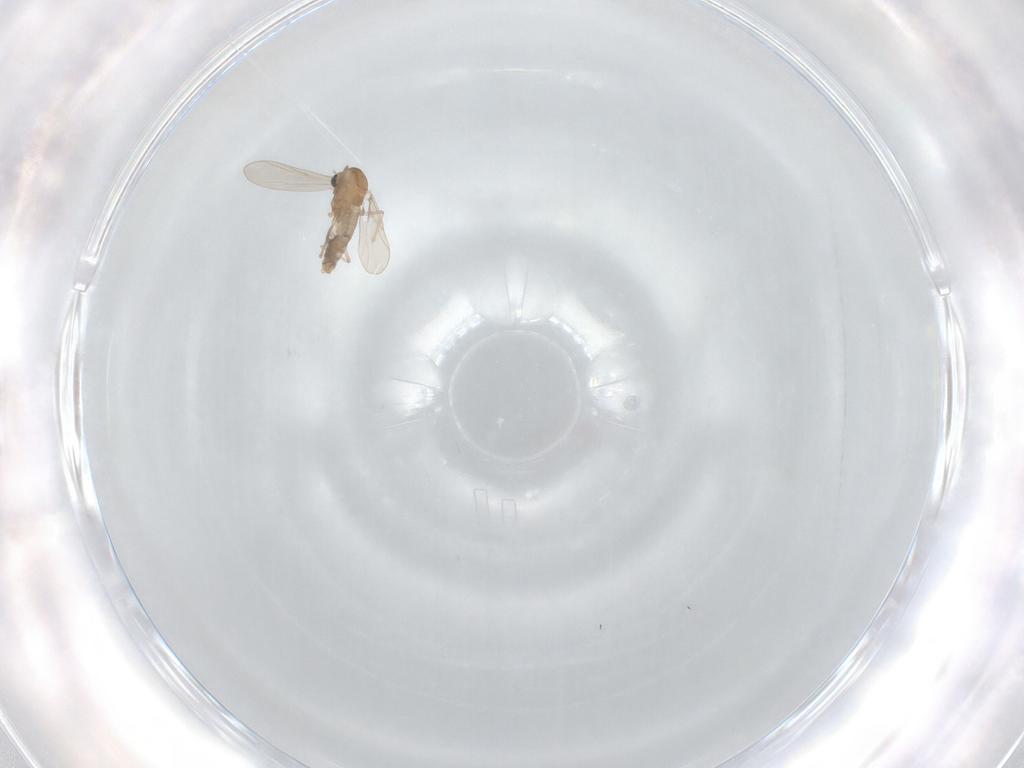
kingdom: Animalia
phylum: Arthropoda
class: Insecta
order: Diptera
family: Chironomidae
